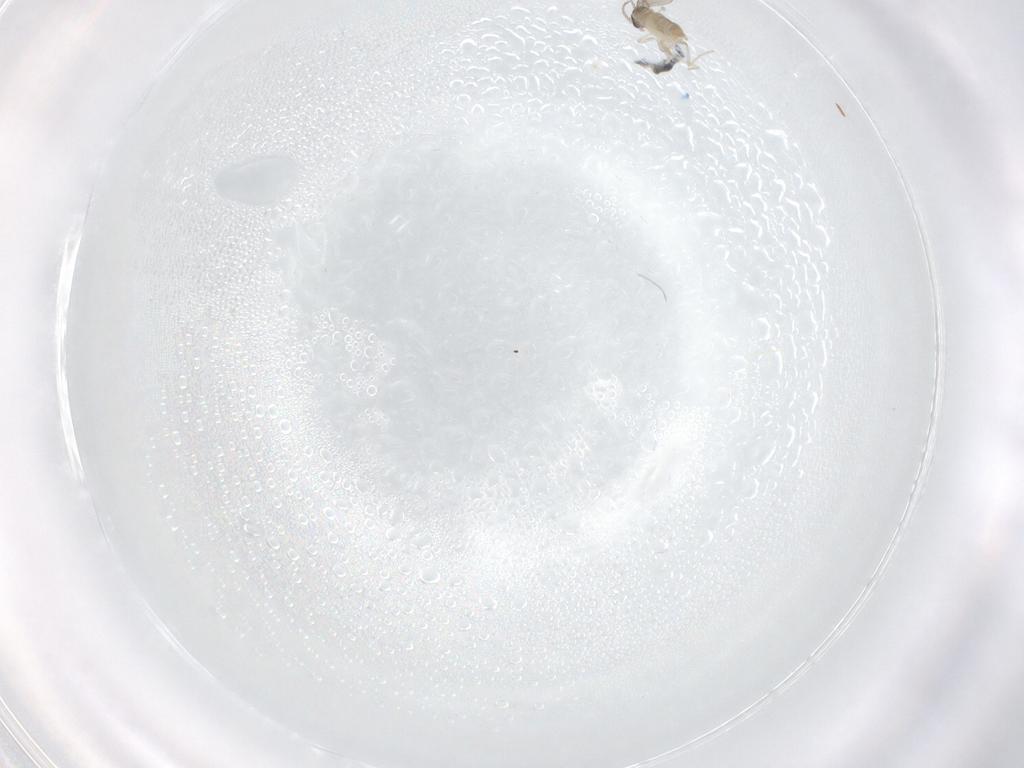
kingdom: Animalia
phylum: Arthropoda
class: Insecta
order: Diptera
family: Cecidomyiidae
